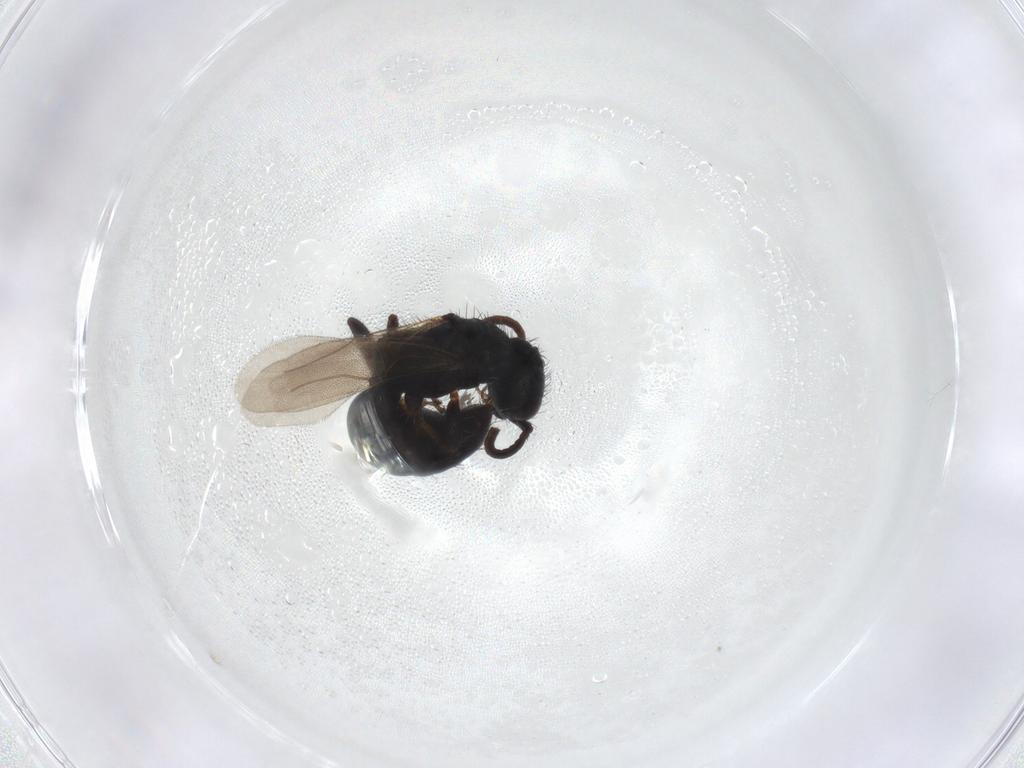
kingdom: Animalia
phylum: Arthropoda
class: Insecta
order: Hymenoptera
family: Bethylidae
